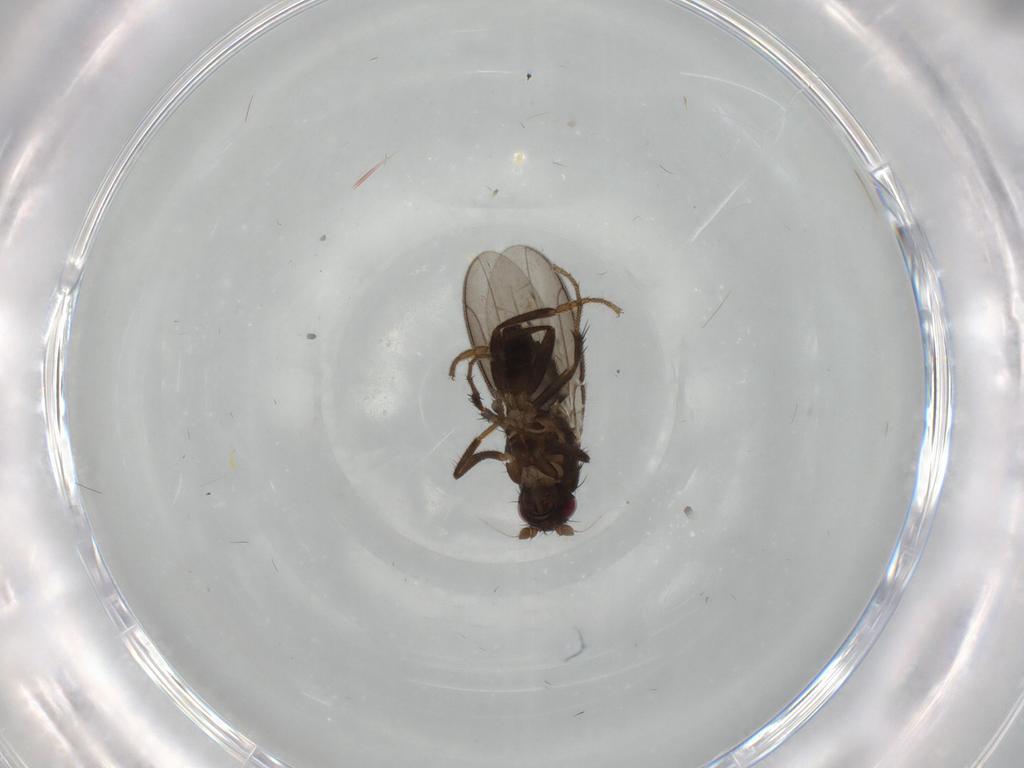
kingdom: Animalia
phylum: Arthropoda
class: Insecta
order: Diptera
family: Sphaeroceridae
